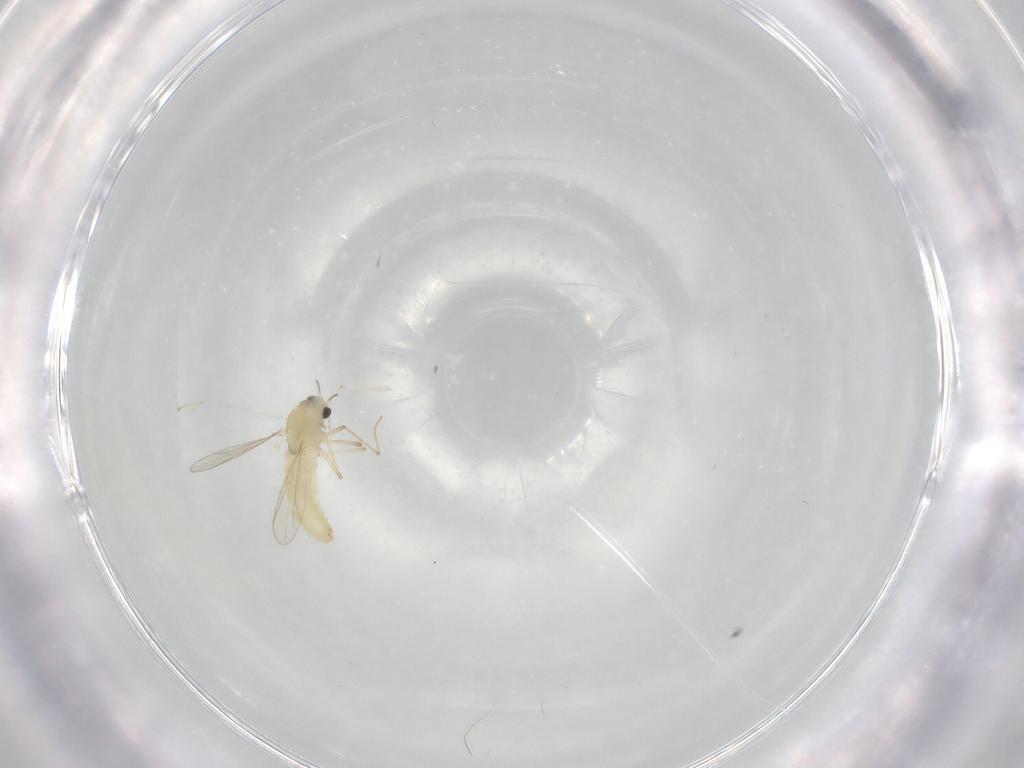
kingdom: Animalia
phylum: Arthropoda
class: Insecta
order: Diptera
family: Chironomidae
